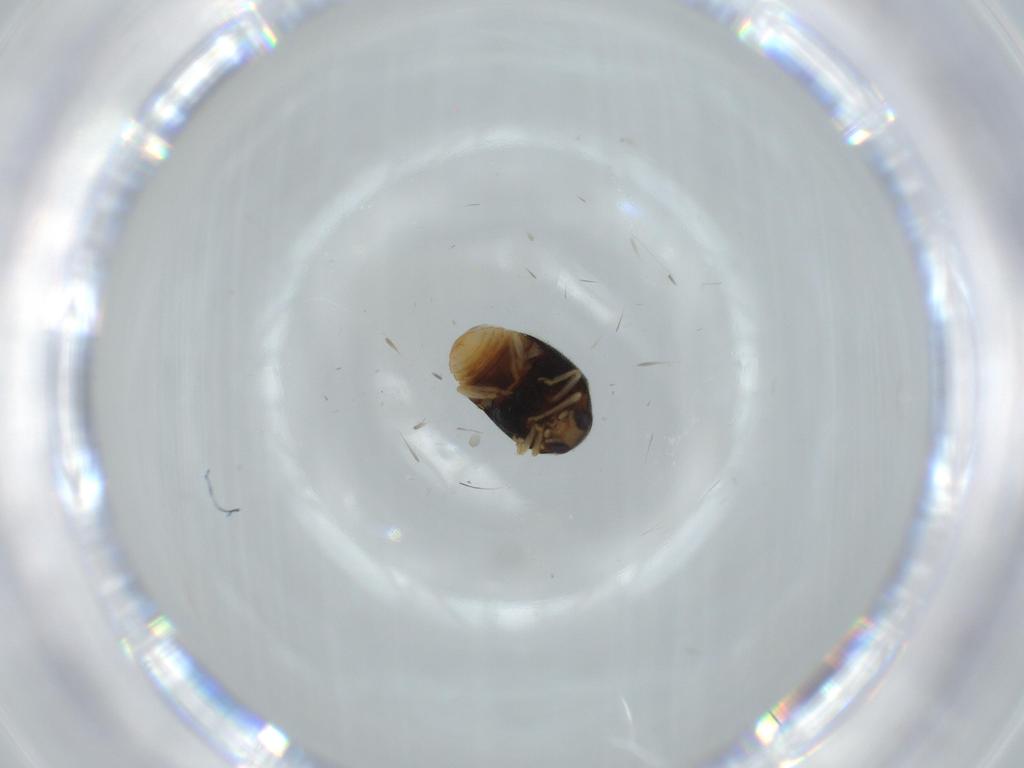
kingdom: Animalia
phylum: Arthropoda
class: Insecta
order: Coleoptera
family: Coccinellidae
